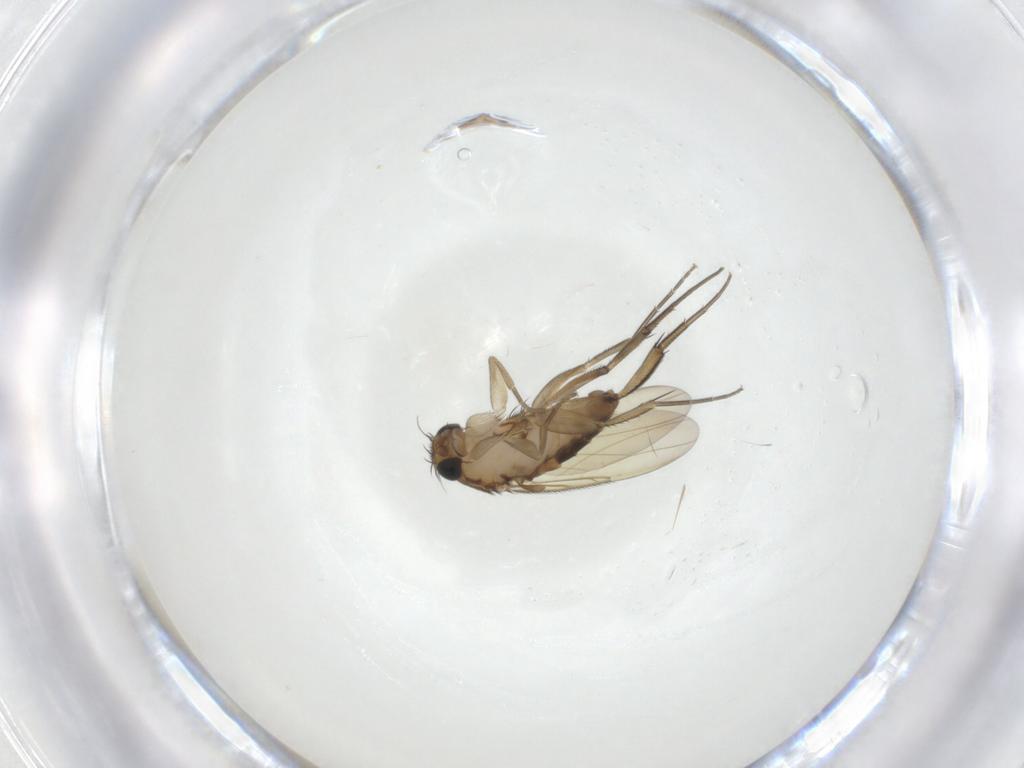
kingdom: Animalia
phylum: Arthropoda
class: Insecta
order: Diptera
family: Phoridae
